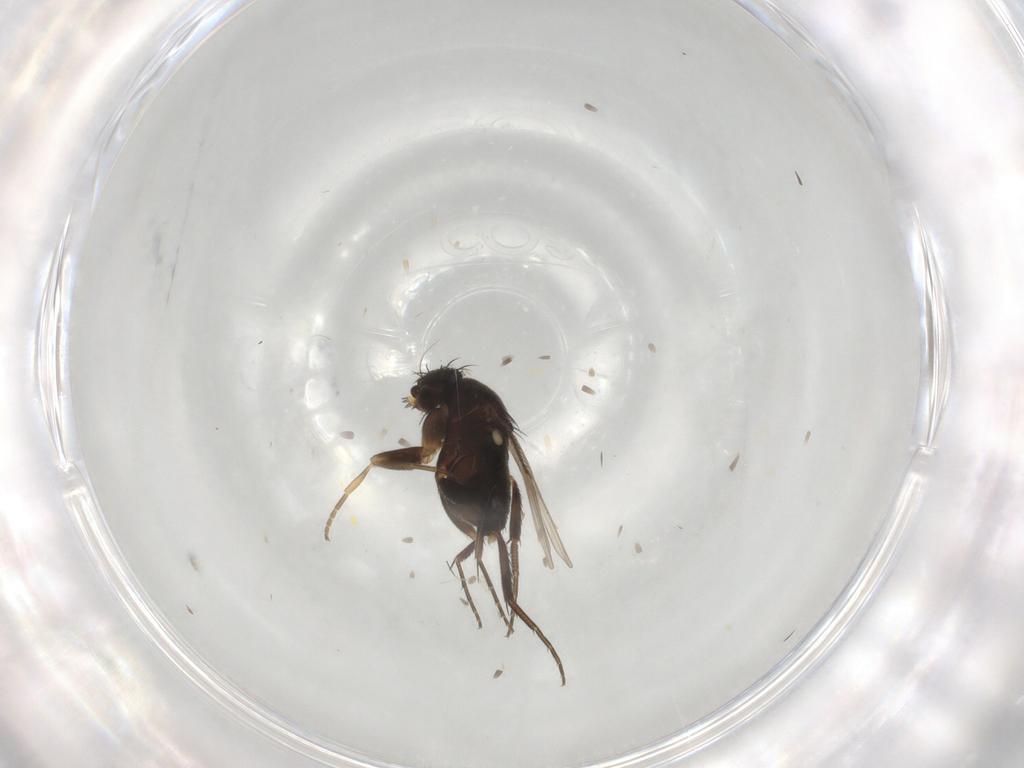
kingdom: Animalia
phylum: Arthropoda
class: Insecta
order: Diptera
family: Phoridae
